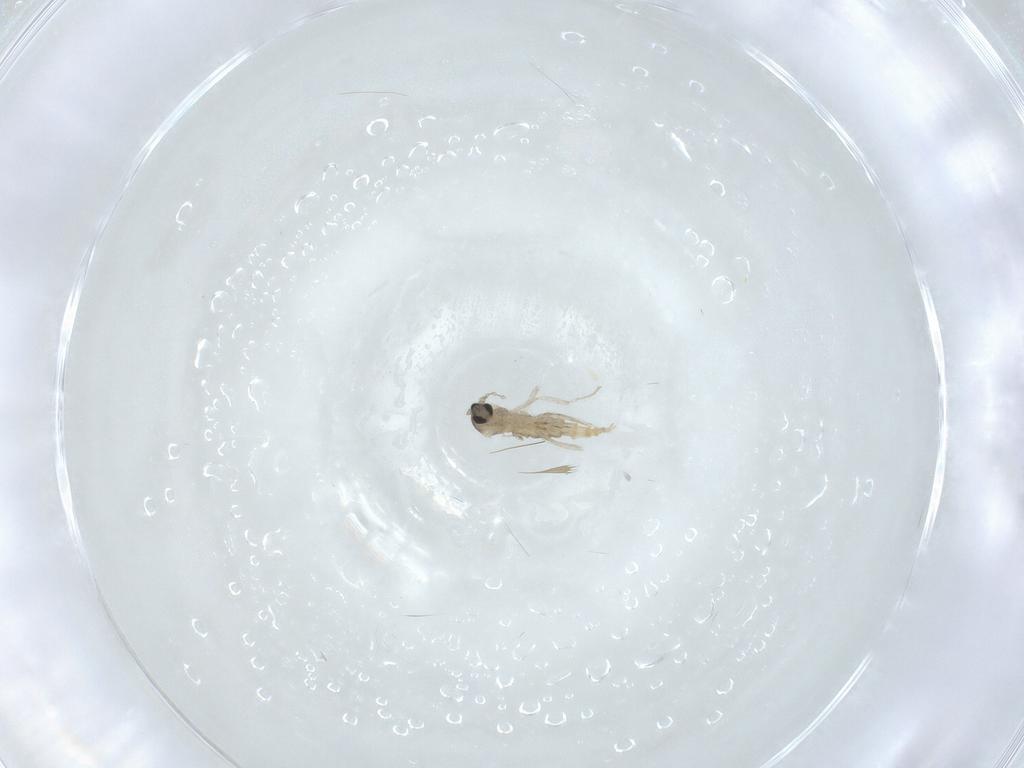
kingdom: Animalia
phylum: Arthropoda
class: Insecta
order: Diptera
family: Cecidomyiidae
